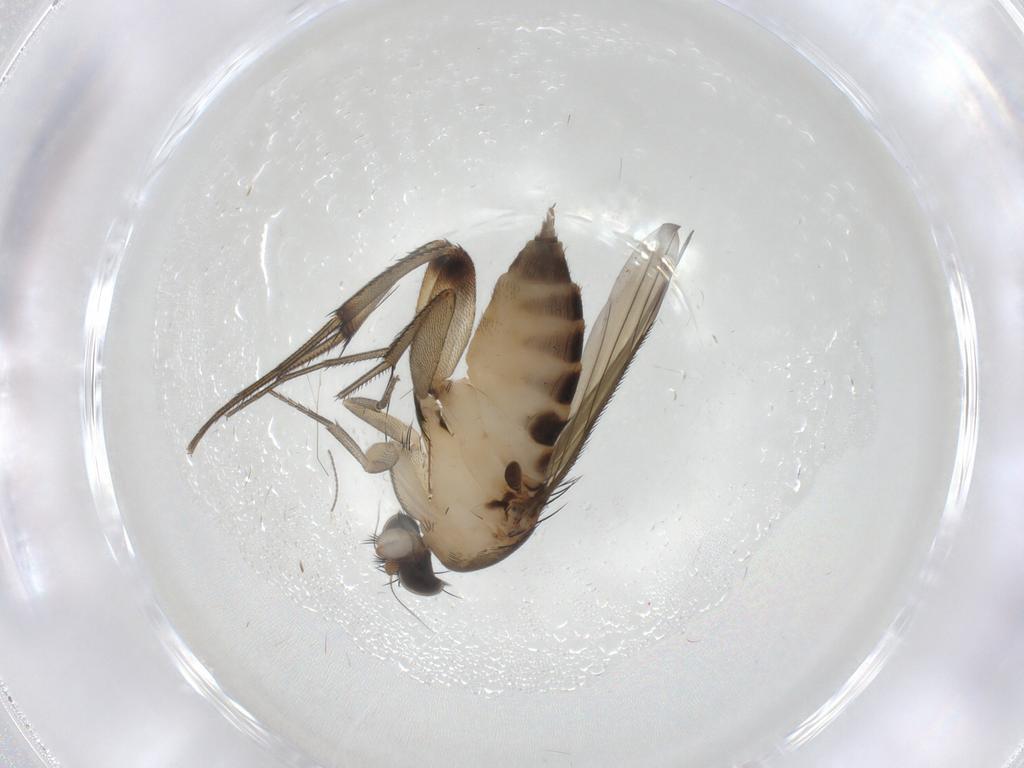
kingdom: Animalia
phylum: Arthropoda
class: Insecta
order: Diptera
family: Phoridae
